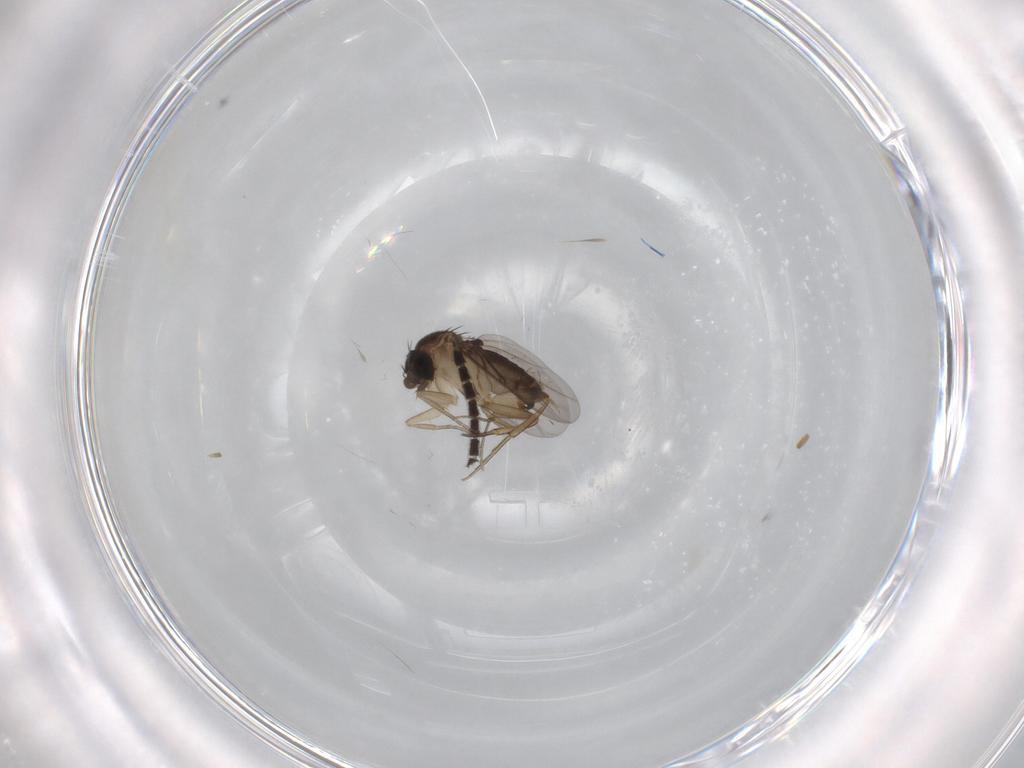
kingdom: Animalia
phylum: Arthropoda
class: Insecta
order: Diptera
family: Sciaridae
